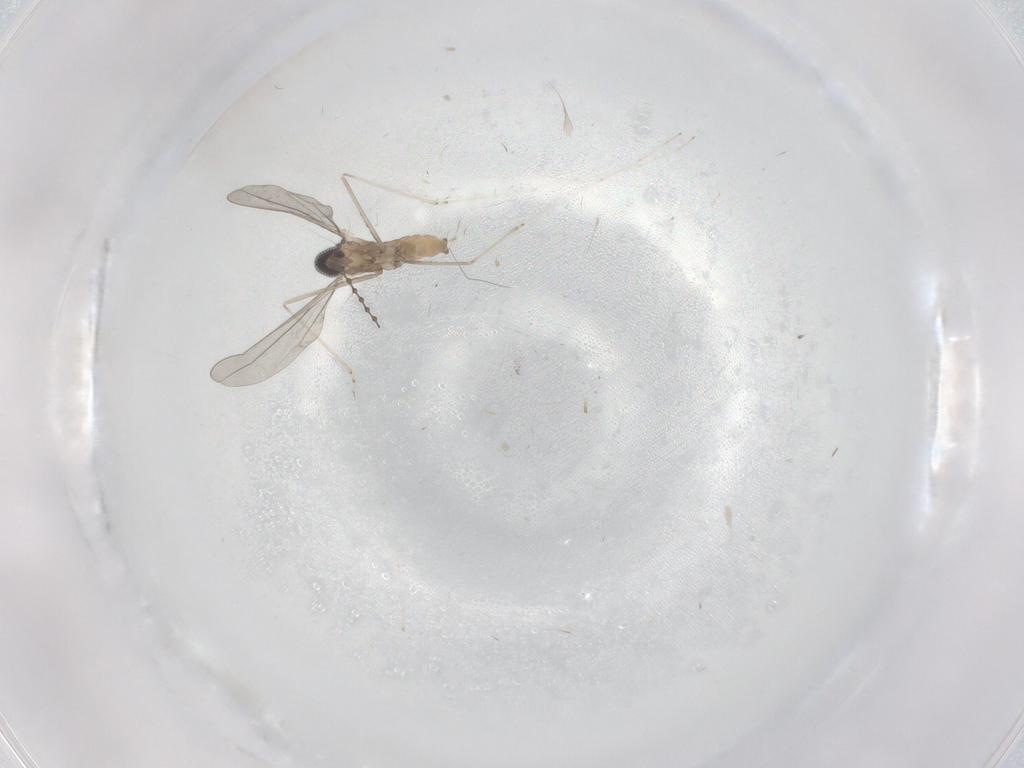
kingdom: Animalia
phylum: Arthropoda
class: Insecta
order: Diptera
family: Cecidomyiidae
